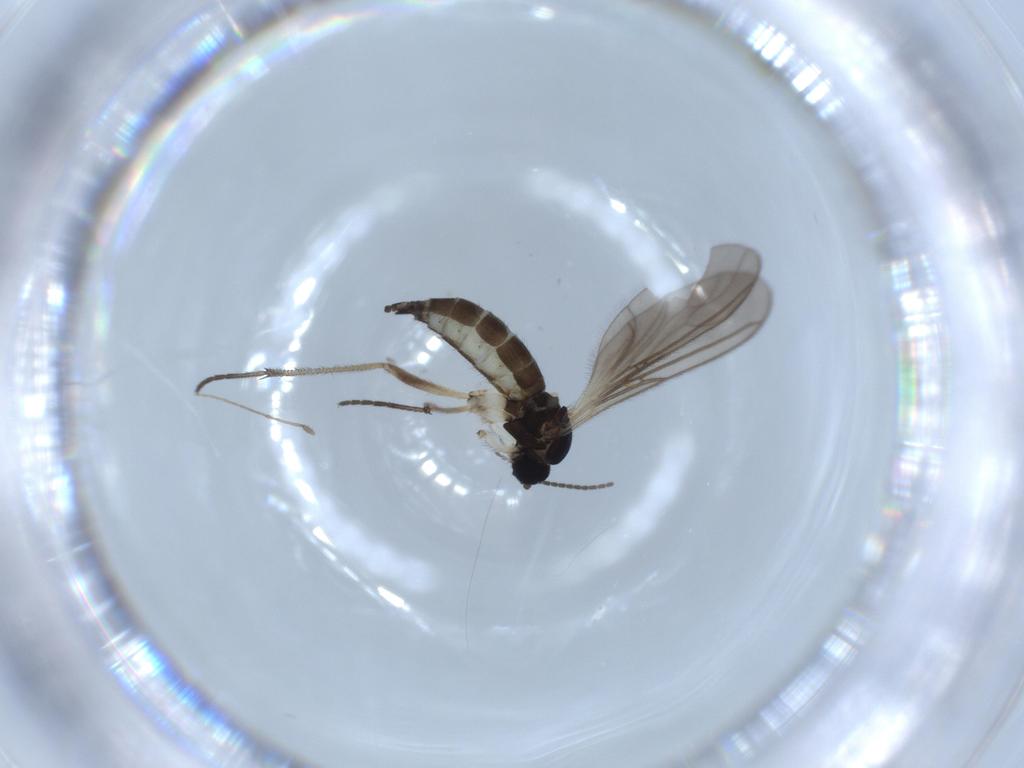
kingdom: Animalia
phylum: Arthropoda
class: Insecta
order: Diptera
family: Sciaridae
